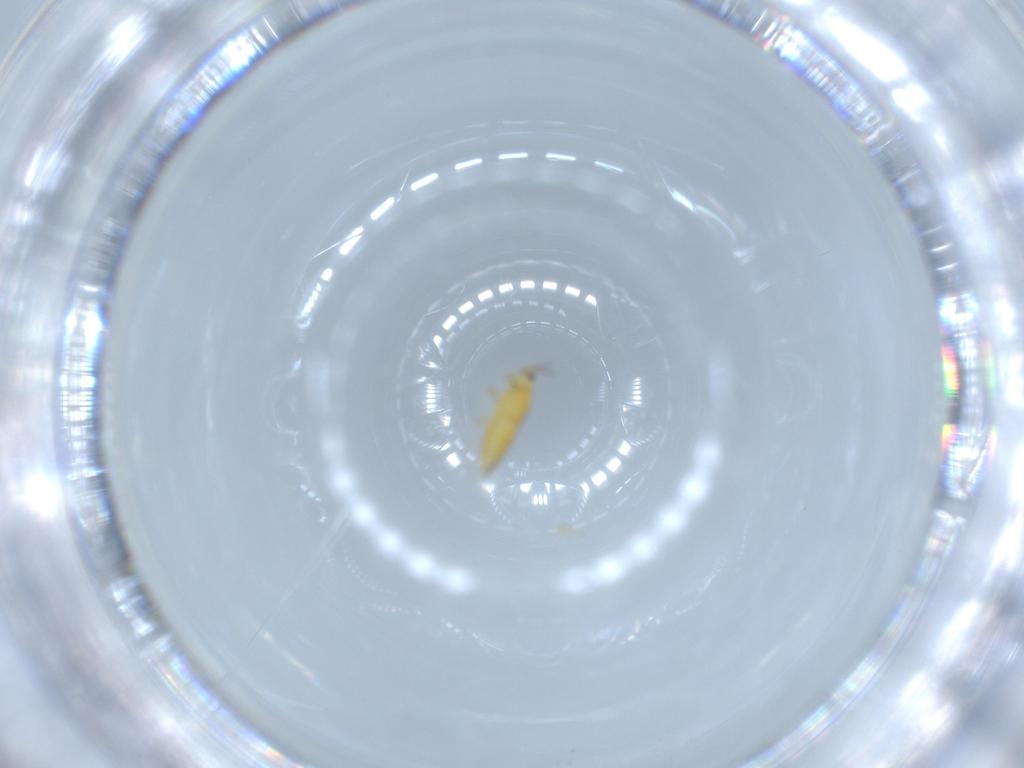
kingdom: Animalia
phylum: Arthropoda
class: Insecta
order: Thysanoptera
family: Thripidae
